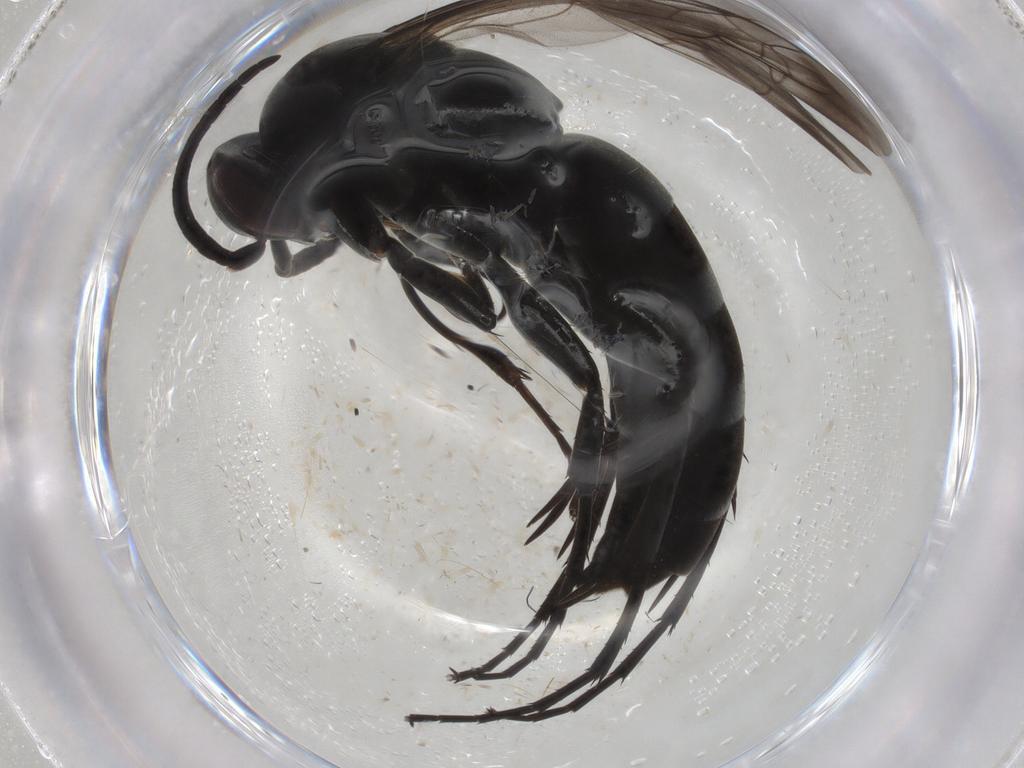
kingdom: Animalia
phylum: Arthropoda
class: Insecta
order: Hymenoptera
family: Pompilidae
